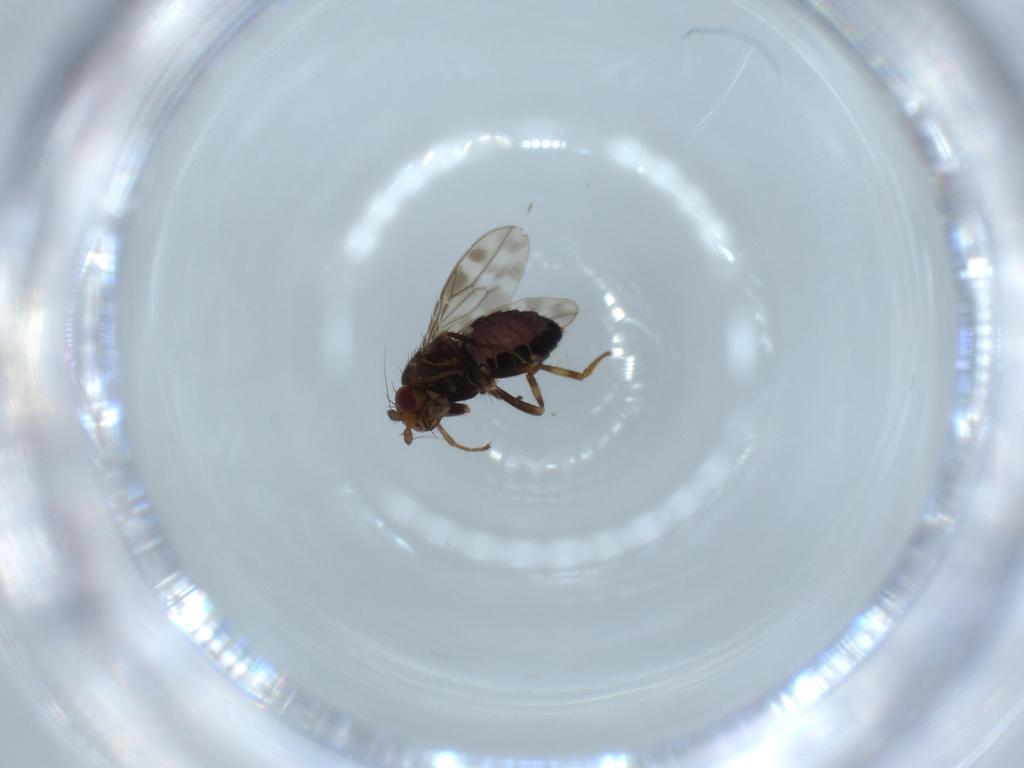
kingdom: Animalia
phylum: Arthropoda
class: Insecta
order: Diptera
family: Sphaeroceridae
